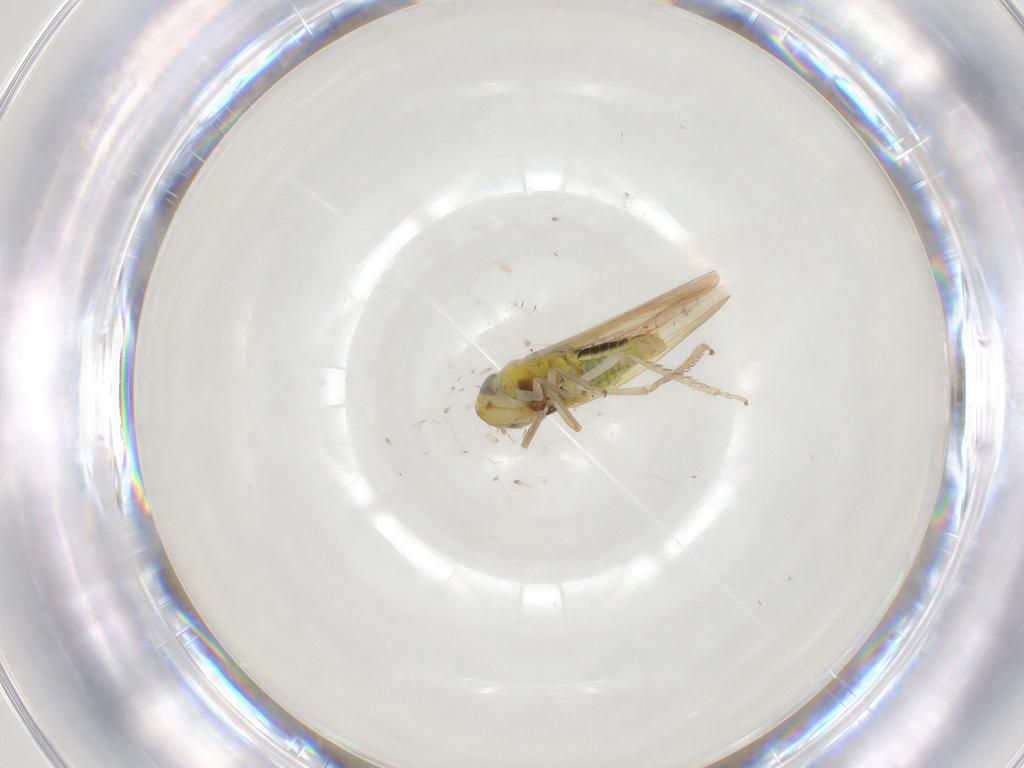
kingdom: Animalia
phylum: Arthropoda
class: Insecta
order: Hemiptera
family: Cicadellidae
